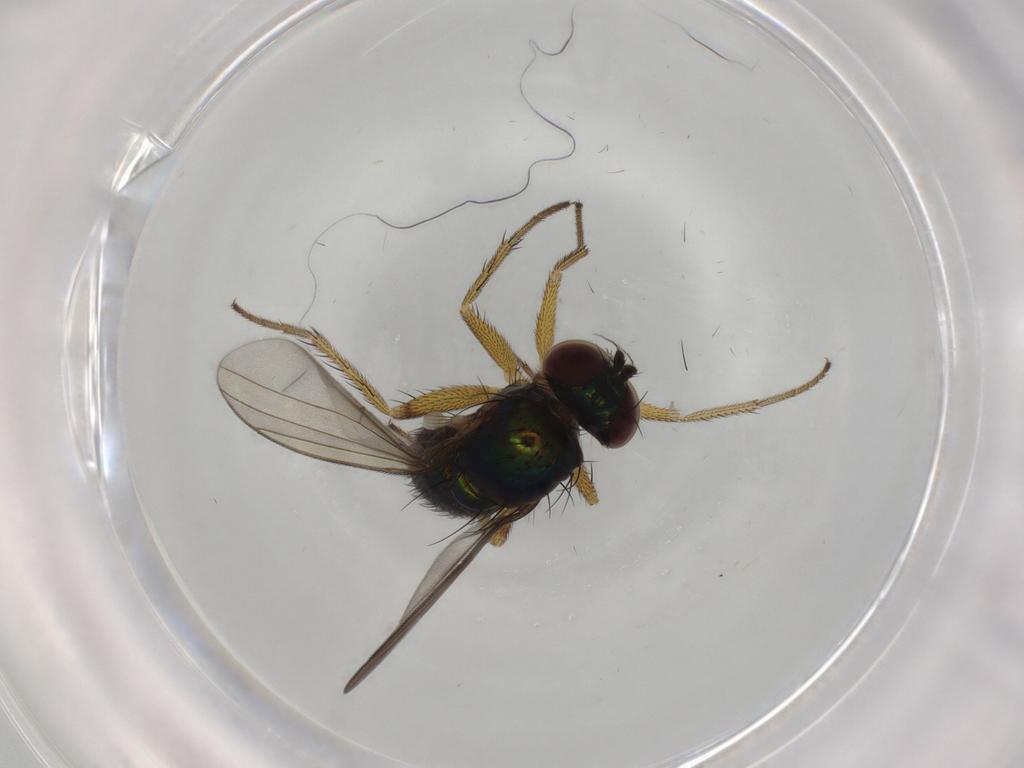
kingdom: Animalia
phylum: Arthropoda
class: Insecta
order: Diptera
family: Dolichopodidae
